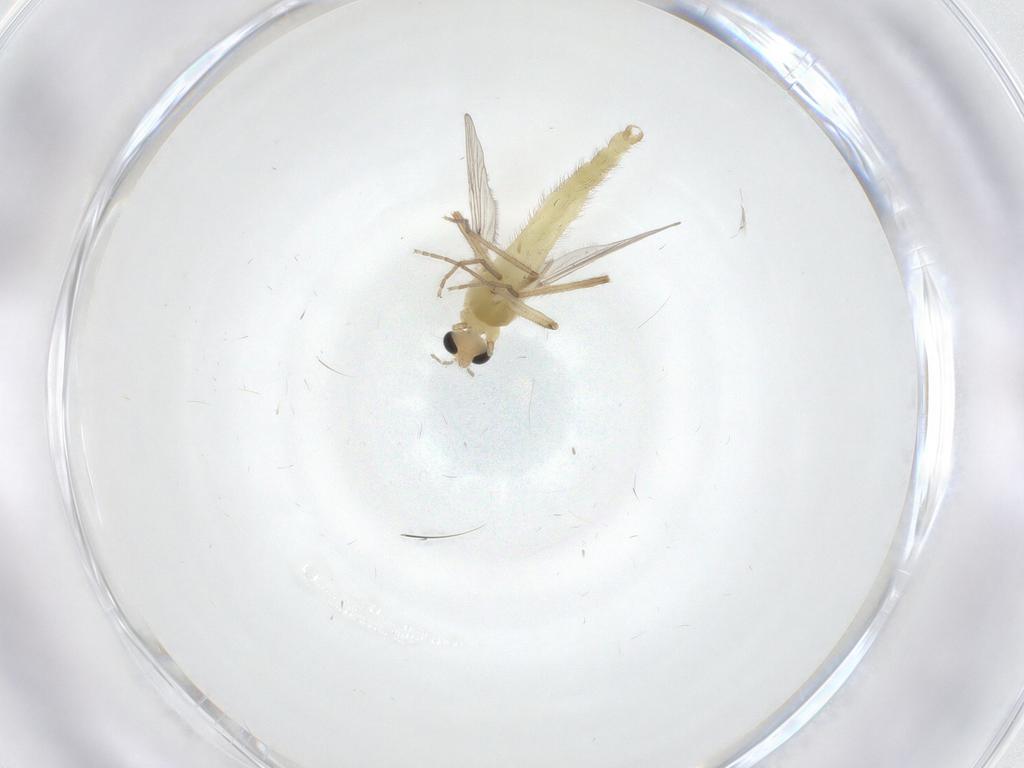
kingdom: Animalia
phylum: Arthropoda
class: Insecta
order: Diptera
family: Chironomidae
